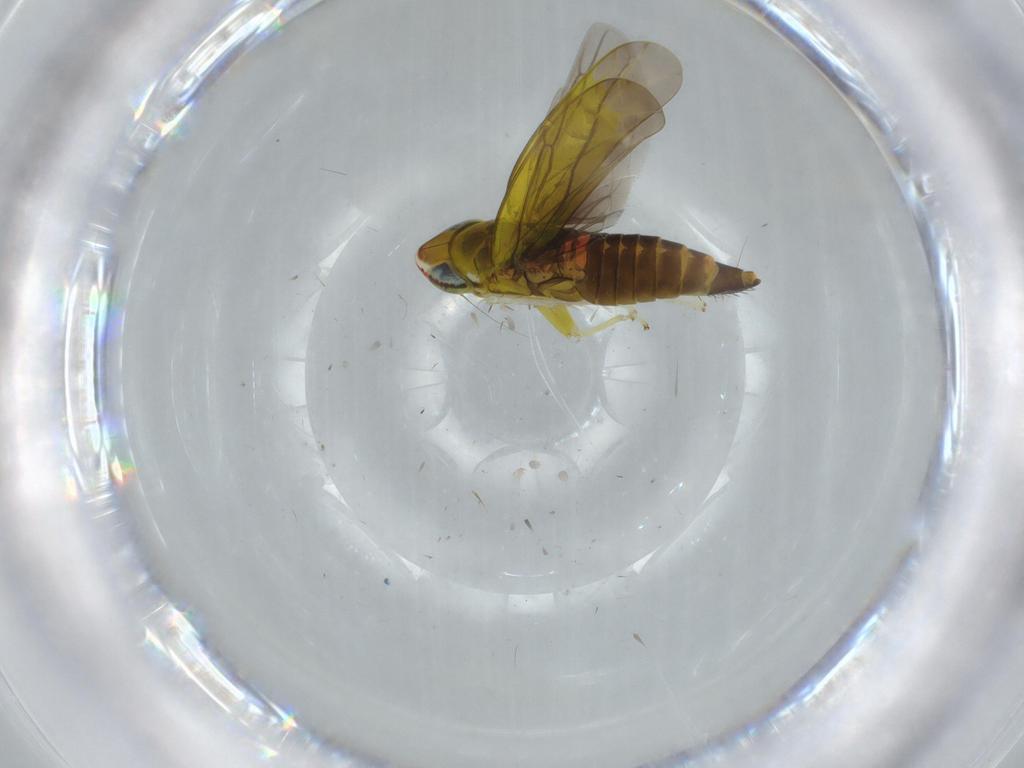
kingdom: Animalia
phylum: Arthropoda
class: Insecta
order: Hemiptera
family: Cicadellidae
